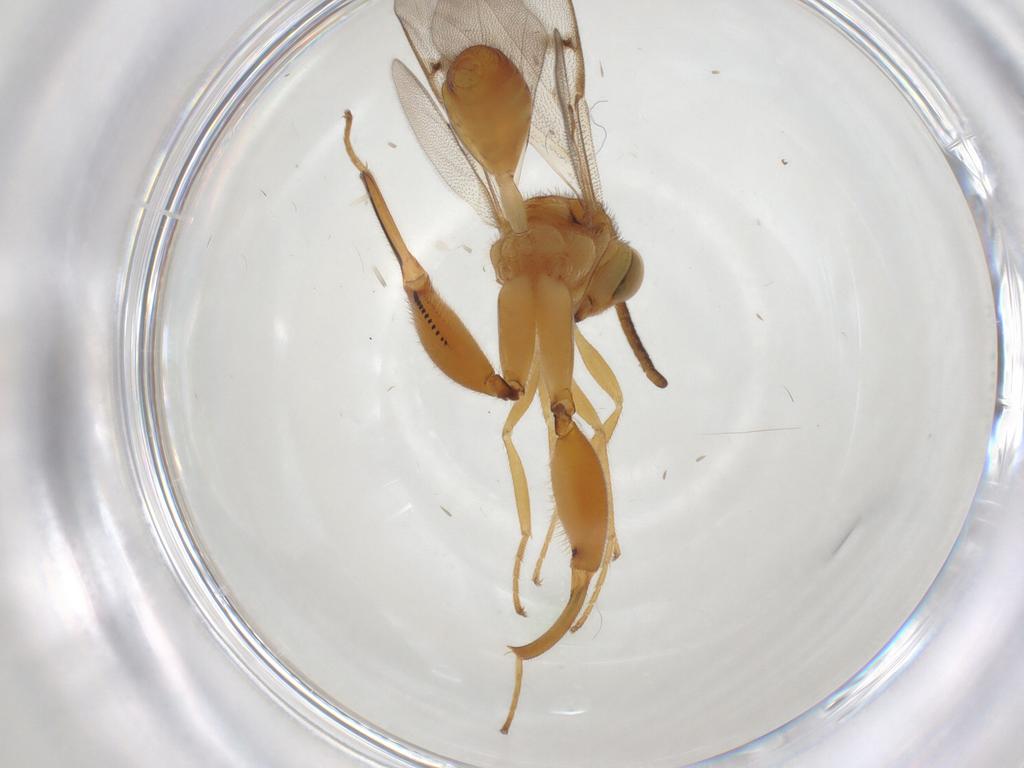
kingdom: Animalia
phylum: Arthropoda
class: Insecta
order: Hymenoptera
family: Chalcididae
